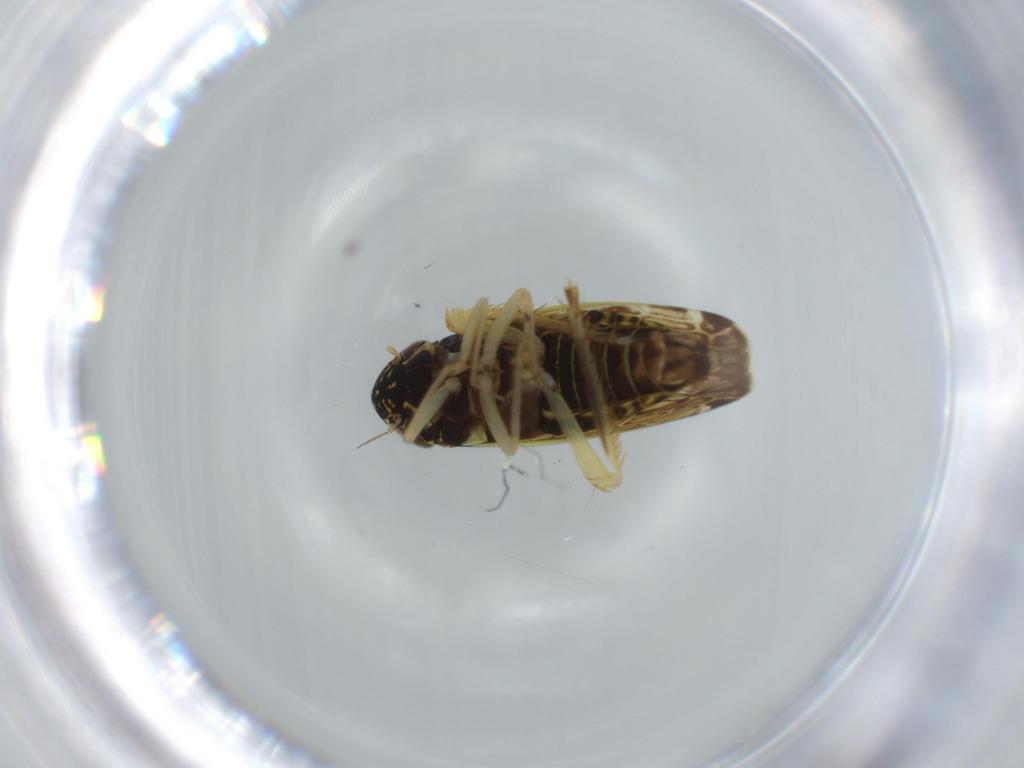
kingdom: Animalia
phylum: Arthropoda
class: Insecta
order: Hemiptera
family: Cicadellidae
